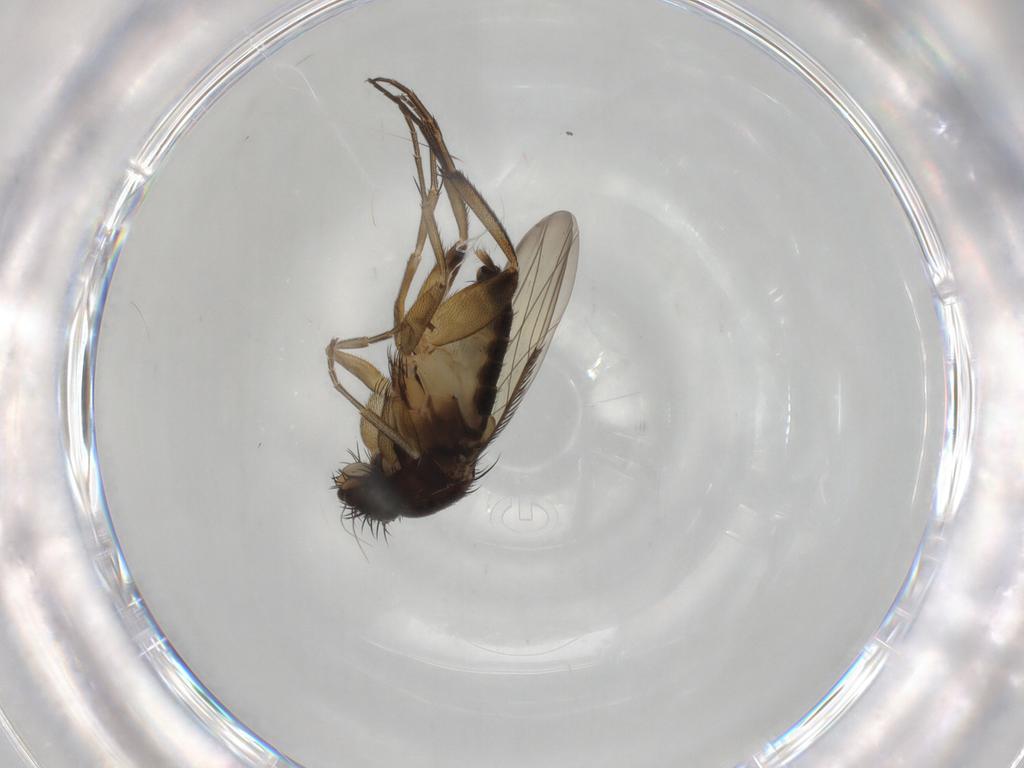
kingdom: Animalia
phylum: Arthropoda
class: Insecta
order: Diptera
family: Phoridae
